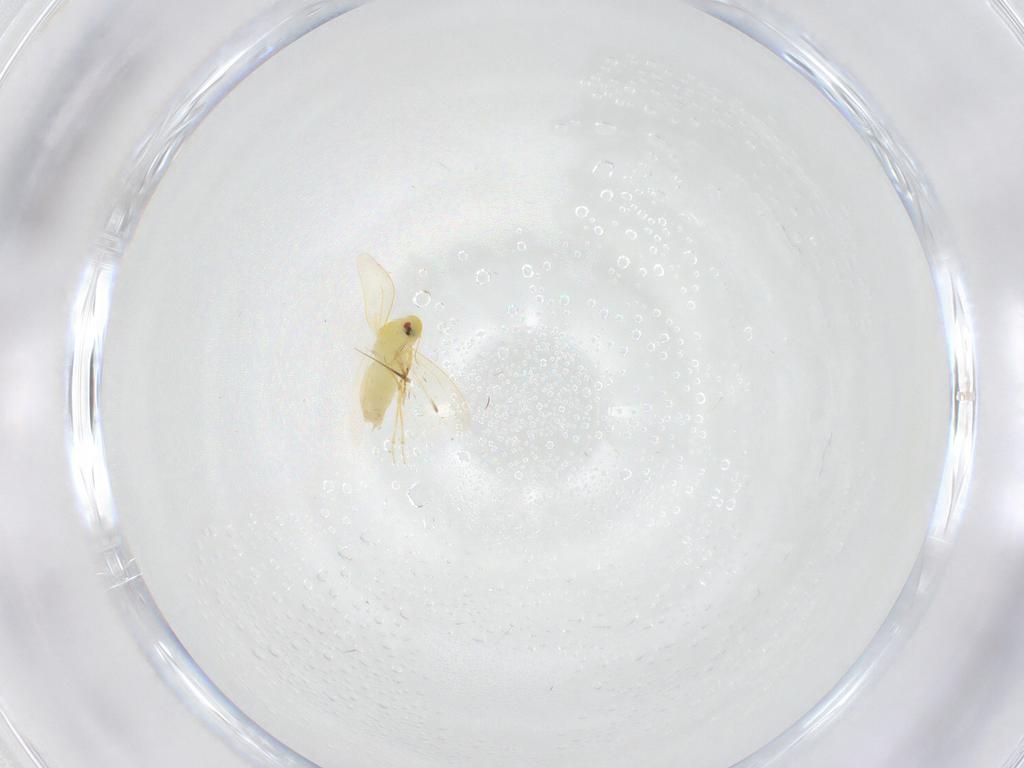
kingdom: Animalia
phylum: Arthropoda
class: Insecta
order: Hemiptera
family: Aleyrodidae
